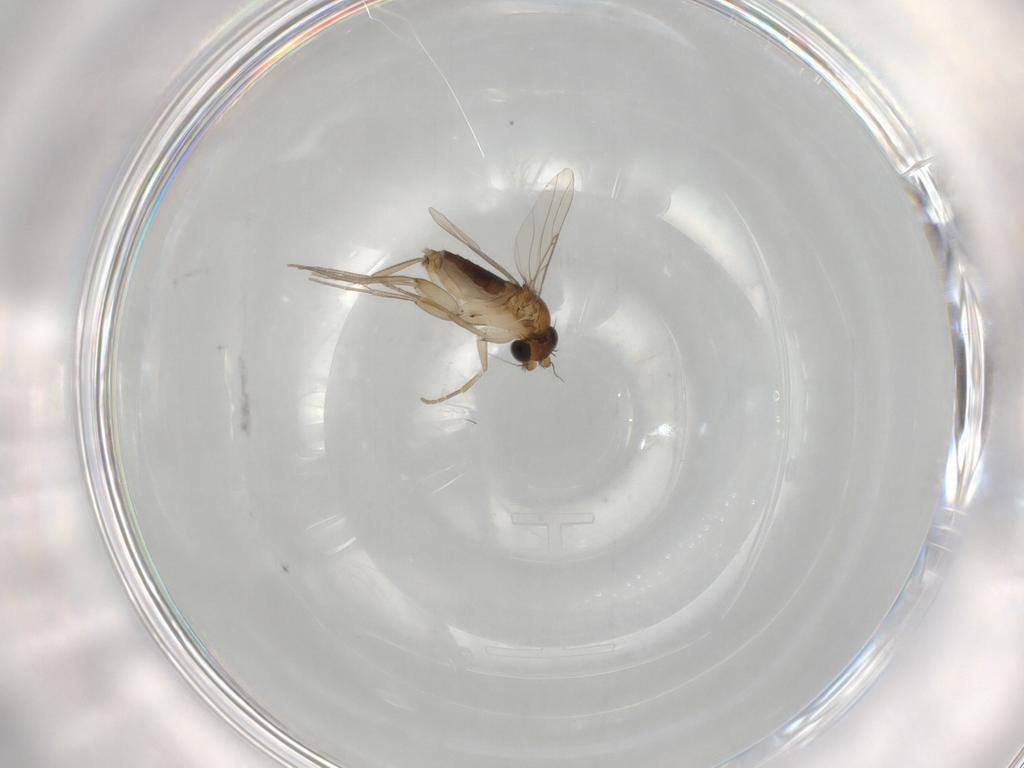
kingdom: Animalia
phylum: Arthropoda
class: Insecta
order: Diptera
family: Phoridae
